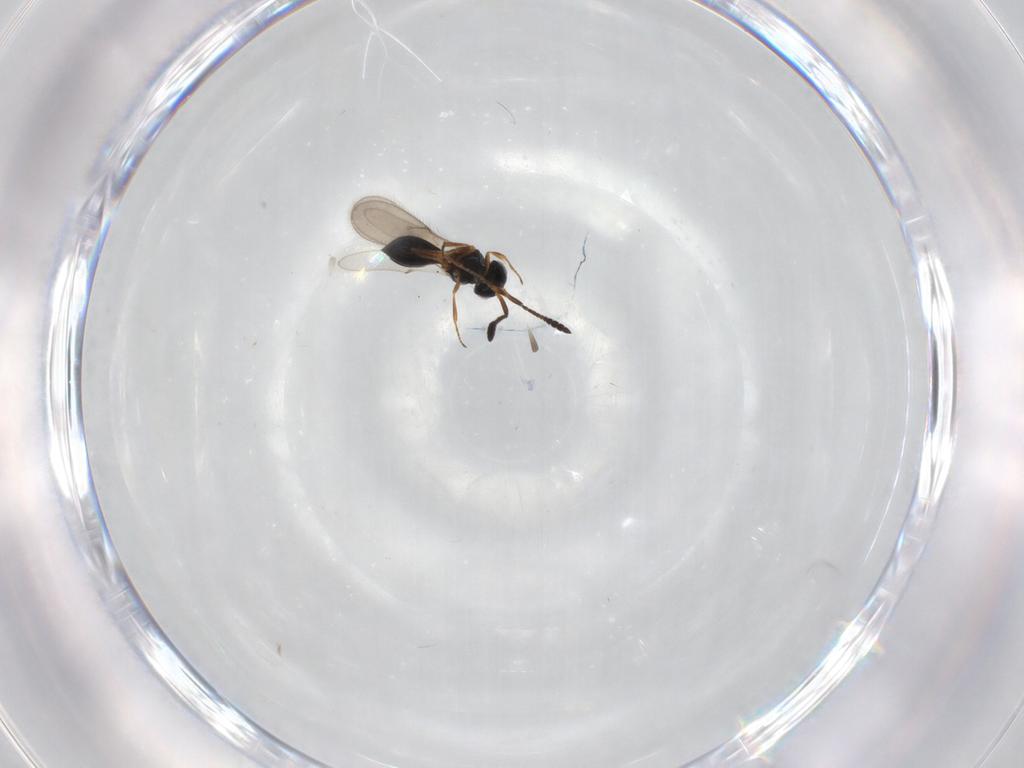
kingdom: Animalia
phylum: Arthropoda
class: Insecta
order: Hymenoptera
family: Scelionidae
